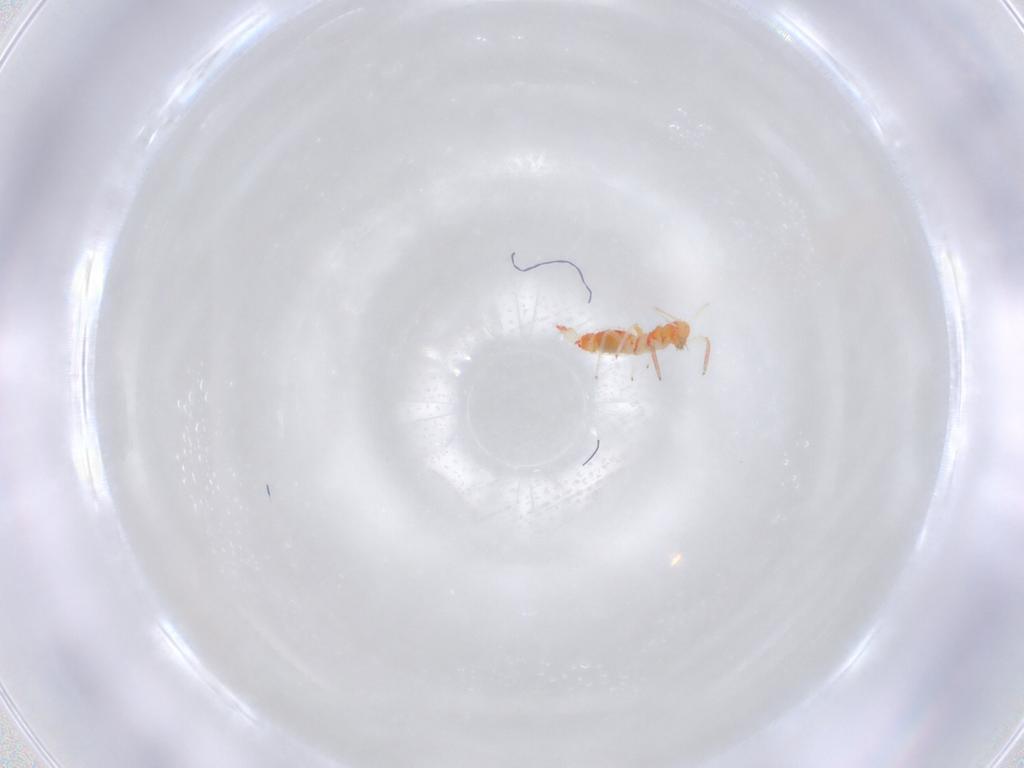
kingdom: Animalia
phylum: Arthropoda
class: Insecta
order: Thysanoptera
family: Aeolothripidae
